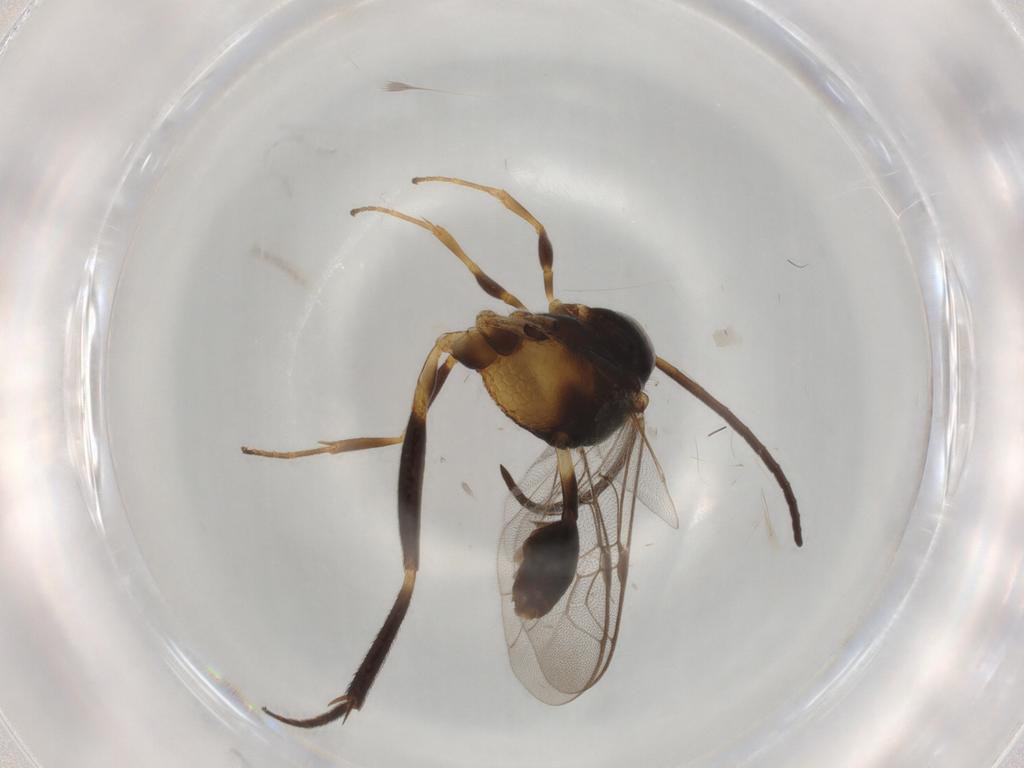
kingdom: Animalia
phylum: Arthropoda
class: Insecta
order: Hymenoptera
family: Evaniidae
